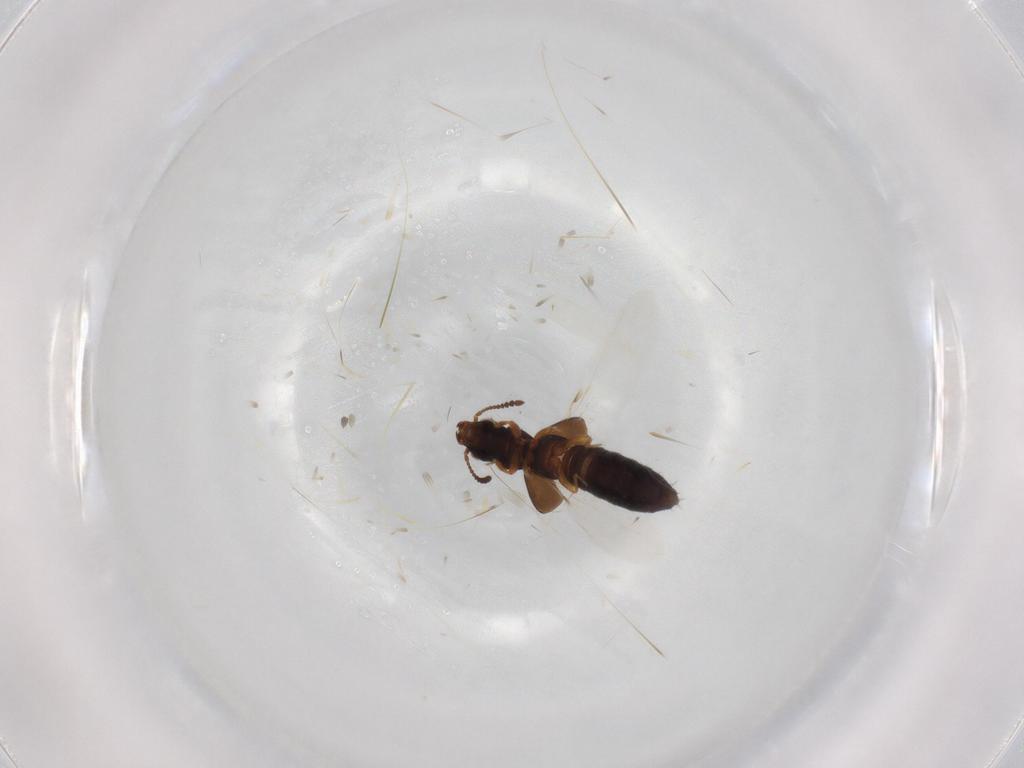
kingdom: Animalia
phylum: Arthropoda
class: Insecta
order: Coleoptera
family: Staphylinidae
